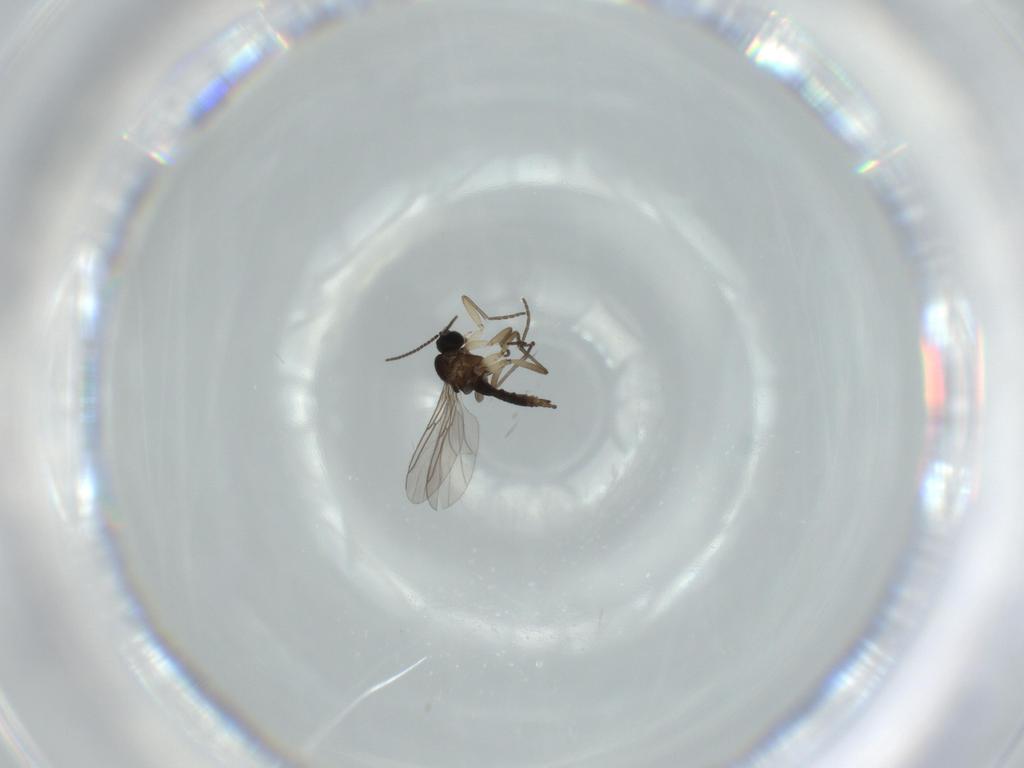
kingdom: Animalia
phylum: Arthropoda
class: Insecta
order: Diptera
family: Sciaridae
